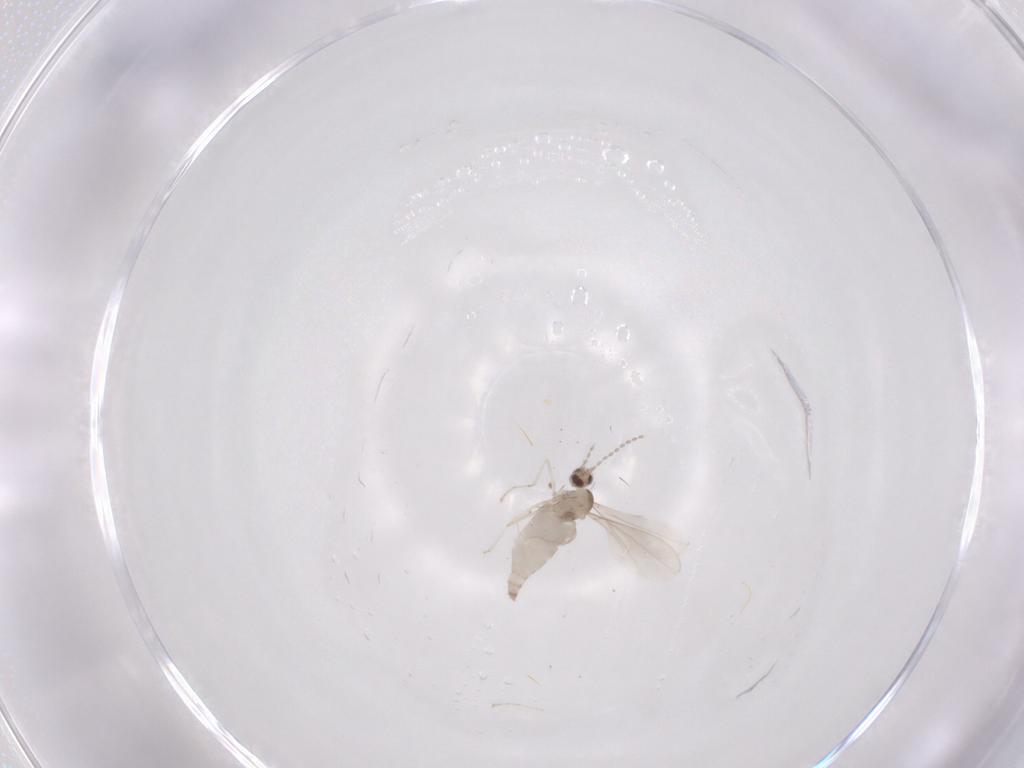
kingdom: Animalia
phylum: Arthropoda
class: Insecta
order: Diptera
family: Cecidomyiidae
